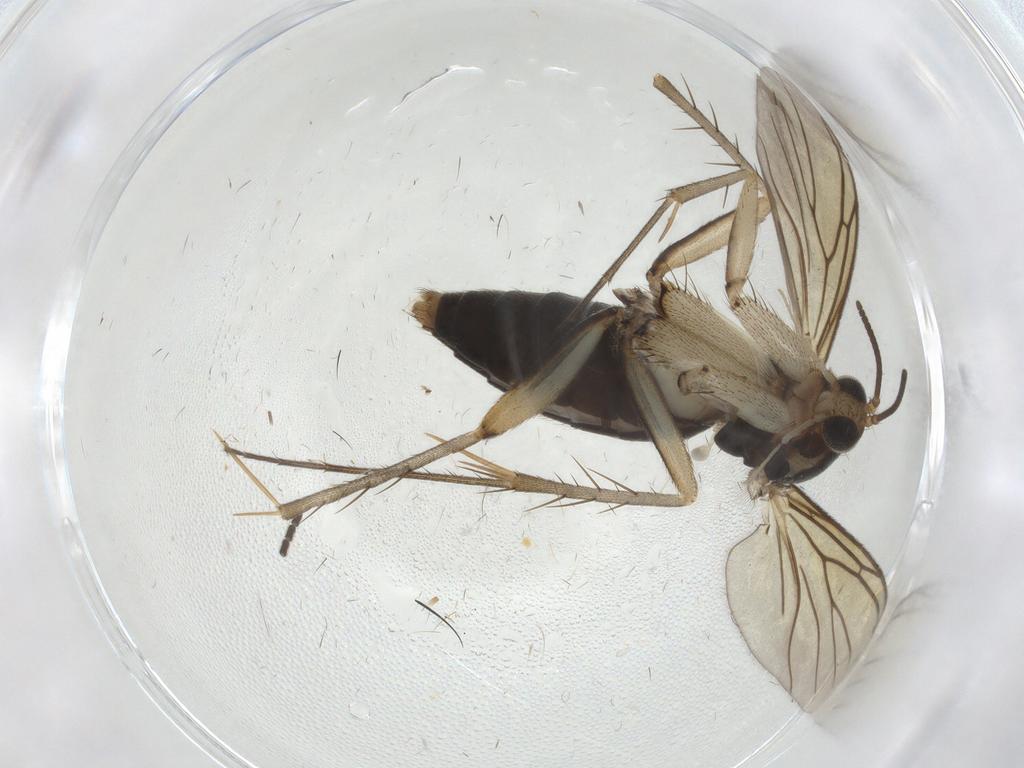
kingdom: Animalia
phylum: Arthropoda
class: Insecta
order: Diptera
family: Sciaridae
